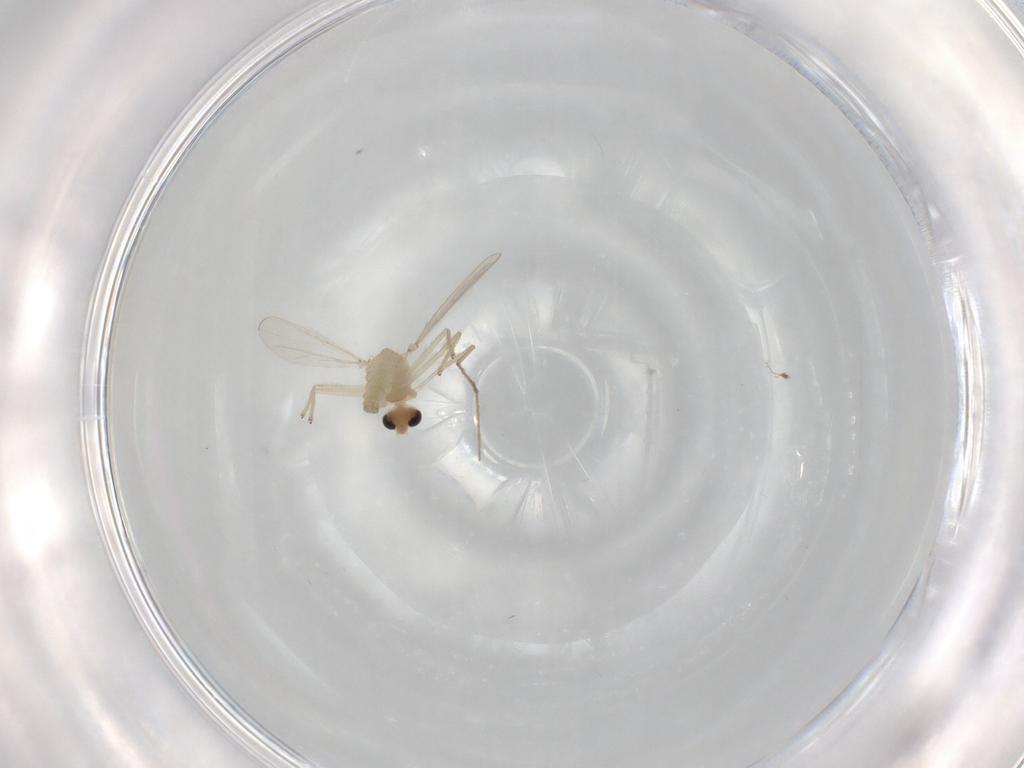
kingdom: Animalia
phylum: Arthropoda
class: Insecta
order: Diptera
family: Chironomidae
